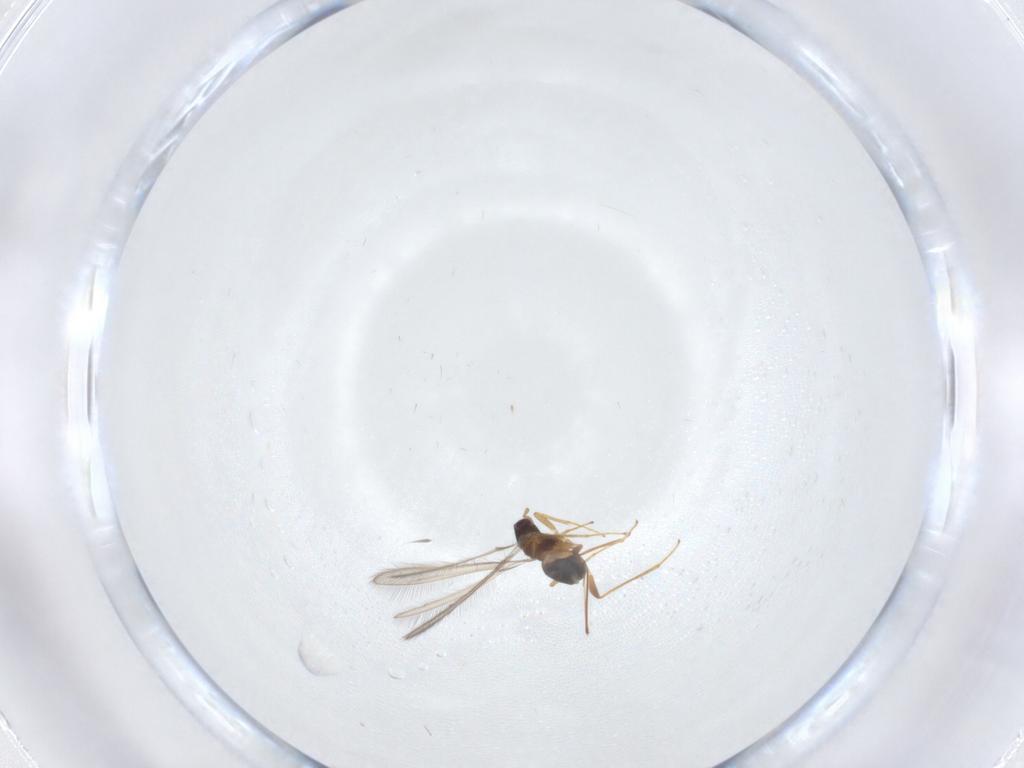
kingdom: Animalia
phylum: Arthropoda
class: Insecta
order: Hymenoptera
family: Mymaridae
